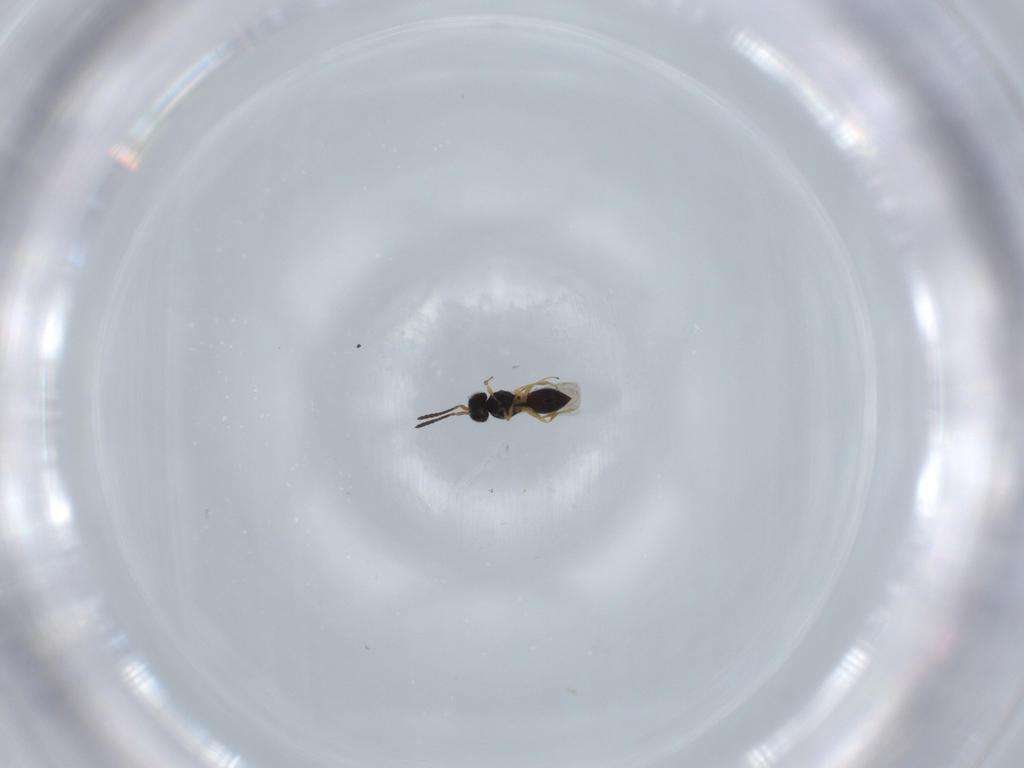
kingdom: Animalia
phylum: Arthropoda
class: Insecta
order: Hymenoptera
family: Scelionidae
